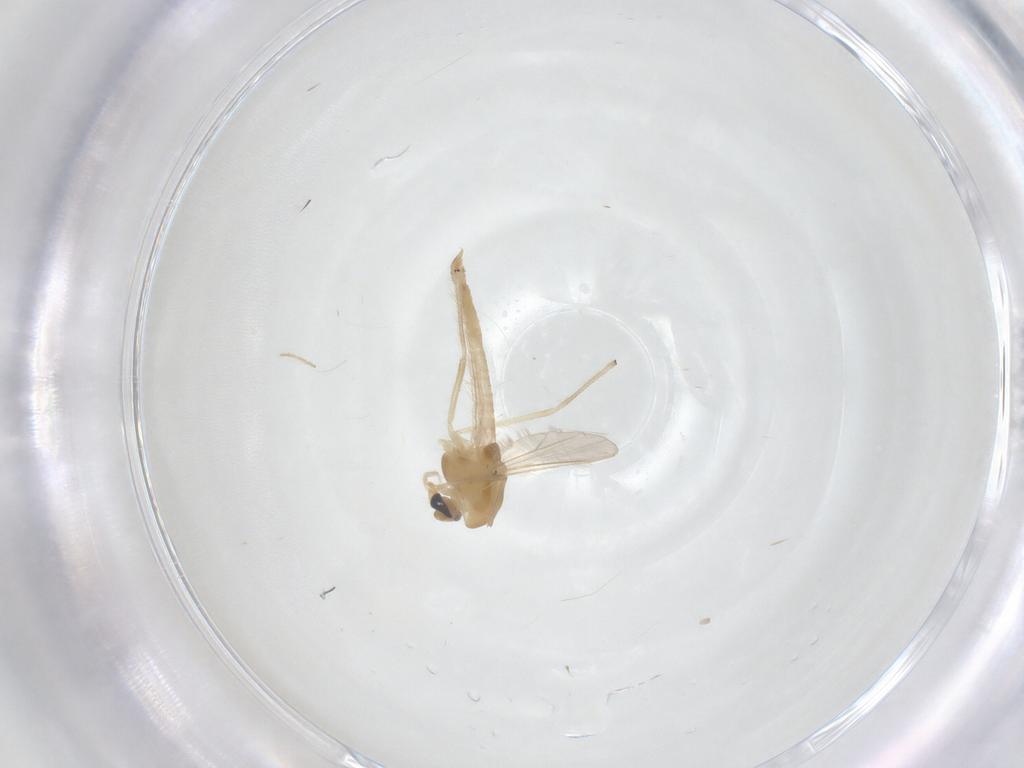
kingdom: Animalia
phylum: Arthropoda
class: Insecta
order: Diptera
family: Chironomidae
